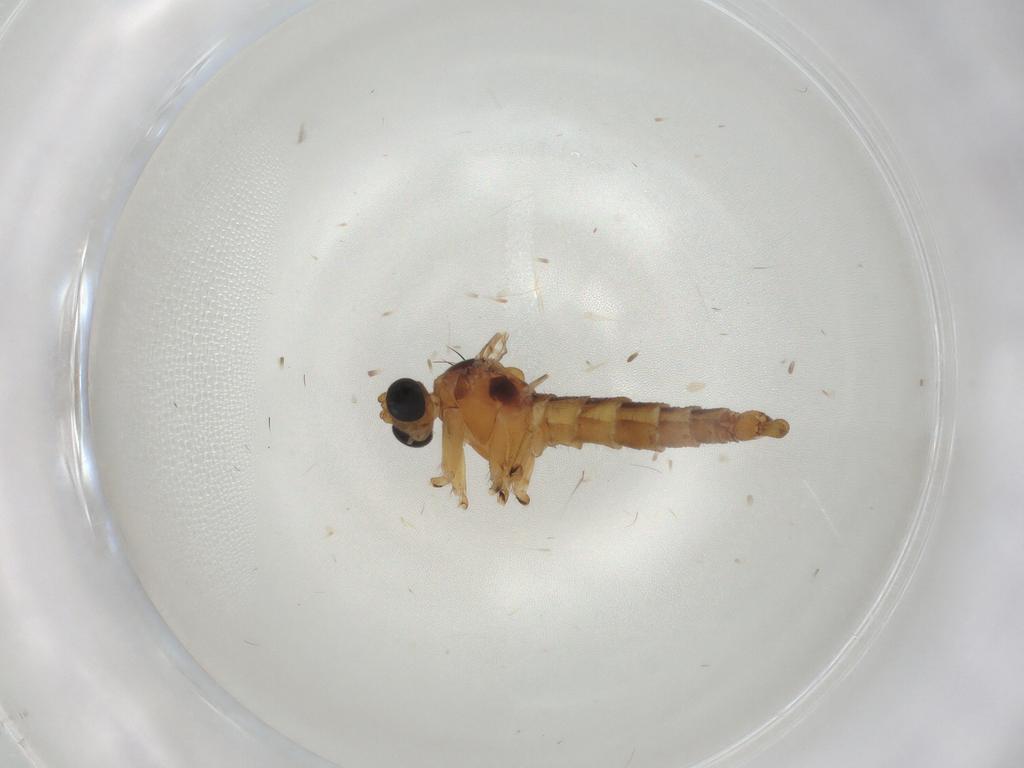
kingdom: Animalia
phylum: Arthropoda
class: Insecta
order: Diptera
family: Sciaridae
